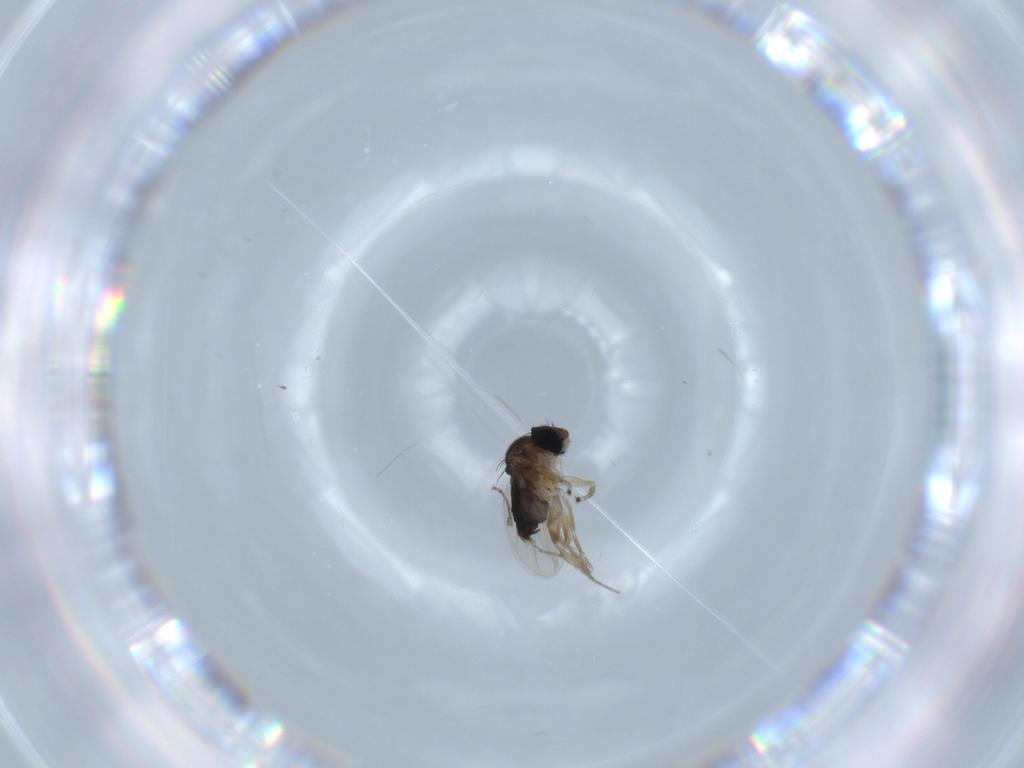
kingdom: Animalia
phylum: Arthropoda
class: Insecta
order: Diptera
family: Phoridae
